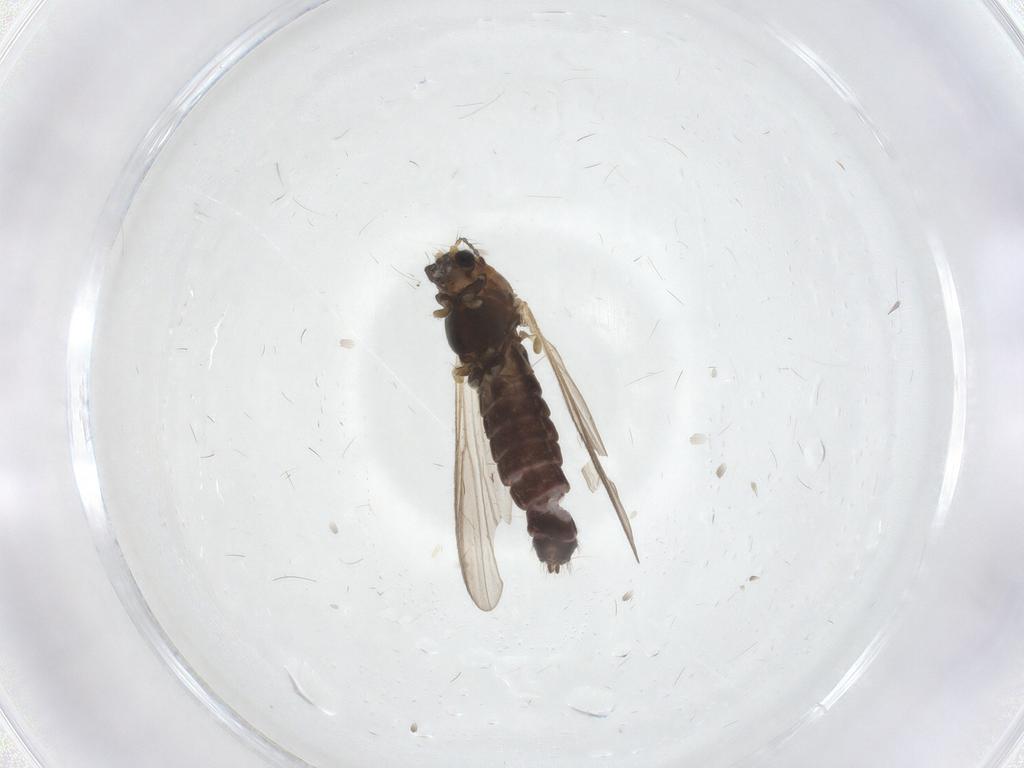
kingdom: Animalia
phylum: Arthropoda
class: Insecta
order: Diptera
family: Chironomidae
